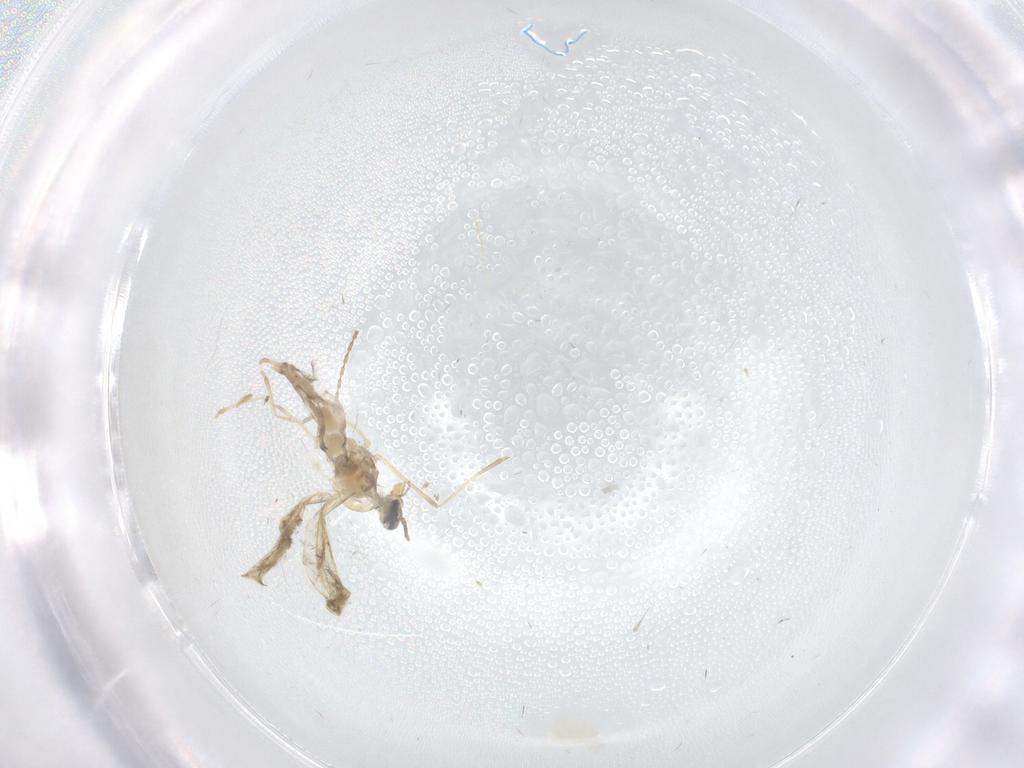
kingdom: Animalia
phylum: Arthropoda
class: Insecta
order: Diptera
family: Cecidomyiidae
